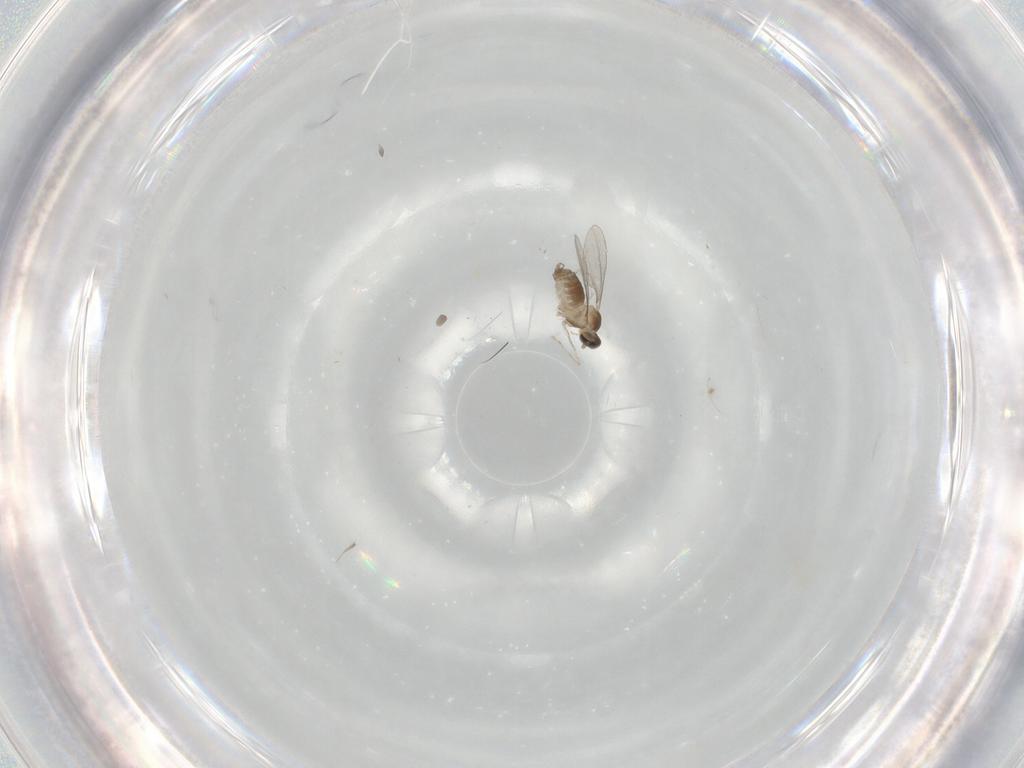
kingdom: Animalia
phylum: Arthropoda
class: Insecta
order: Diptera
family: Cecidomyiidae
